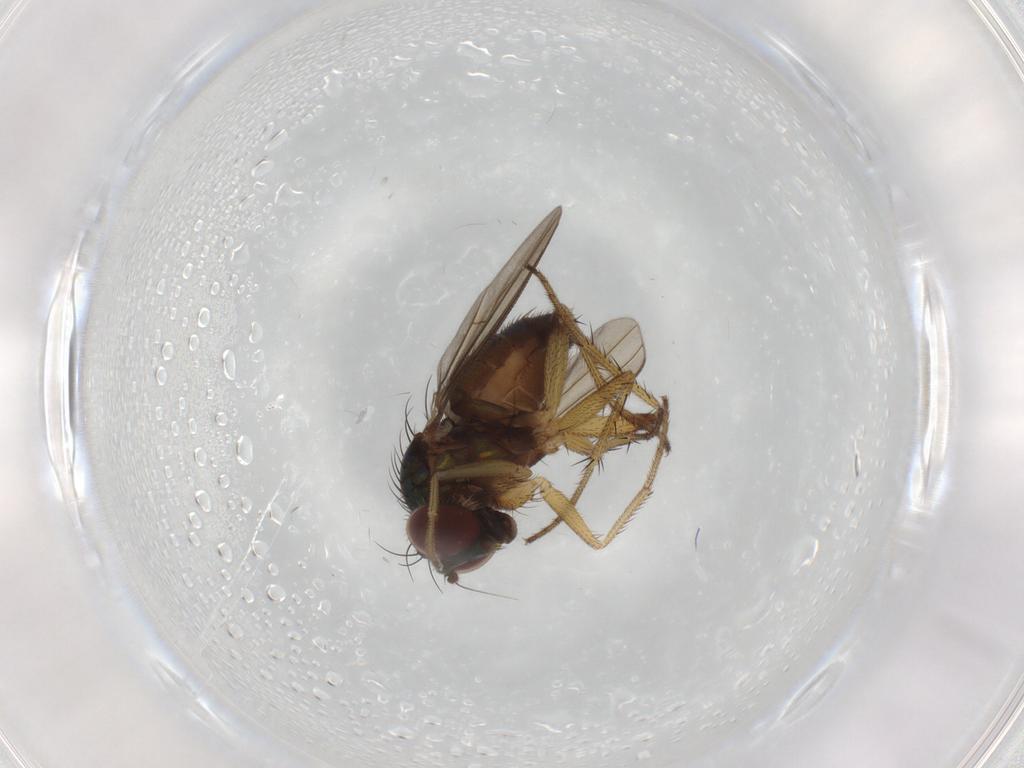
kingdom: Animalia
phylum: Arthropoda
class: Insecta
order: Diptera
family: Dolichopodidae
